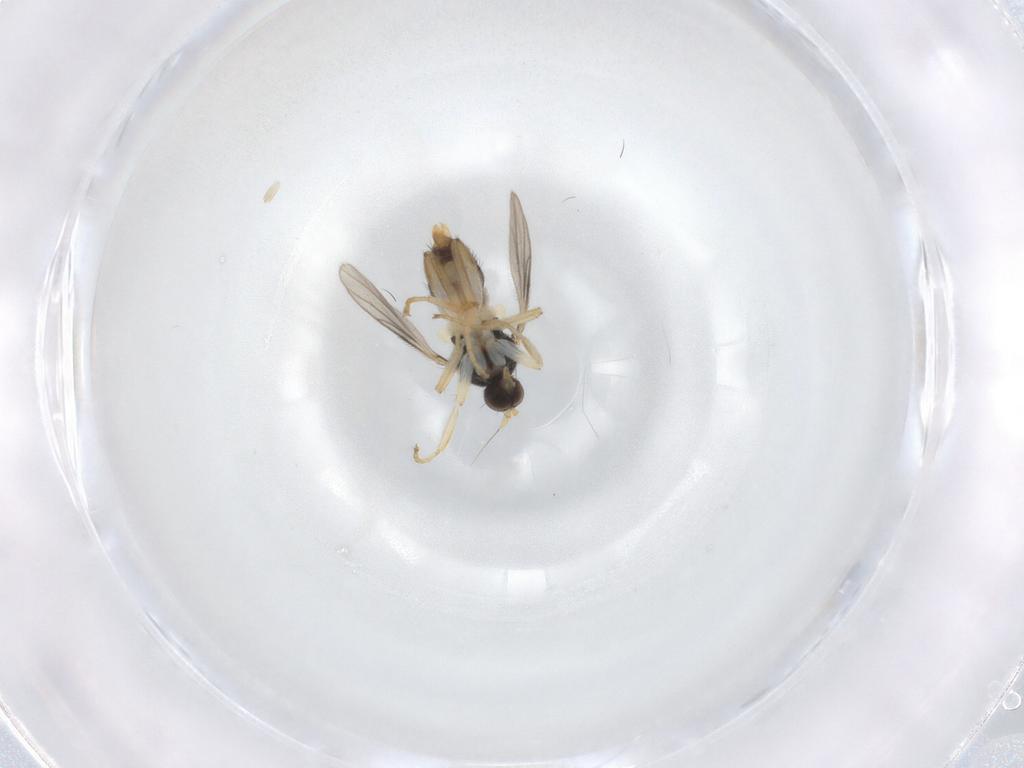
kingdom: Animalia
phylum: Arthropoda
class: Insecta
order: Diptera
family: Hybotidae
